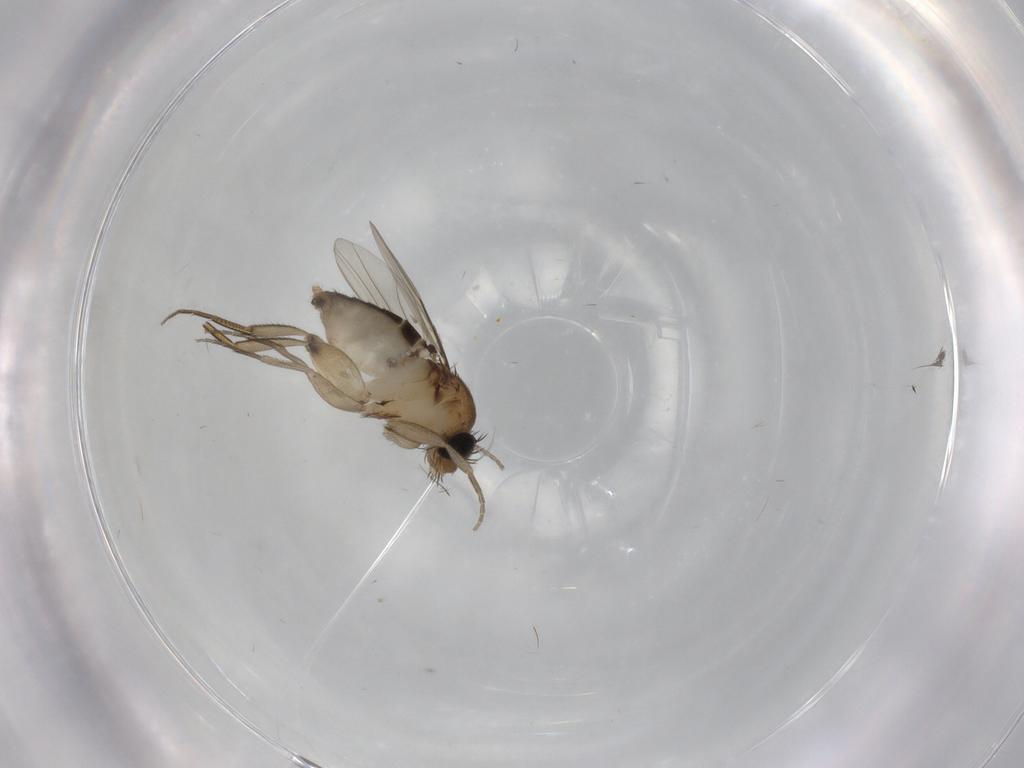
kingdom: Animalia
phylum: Arthropoda
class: Insecta
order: Diptera
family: Phoridae
